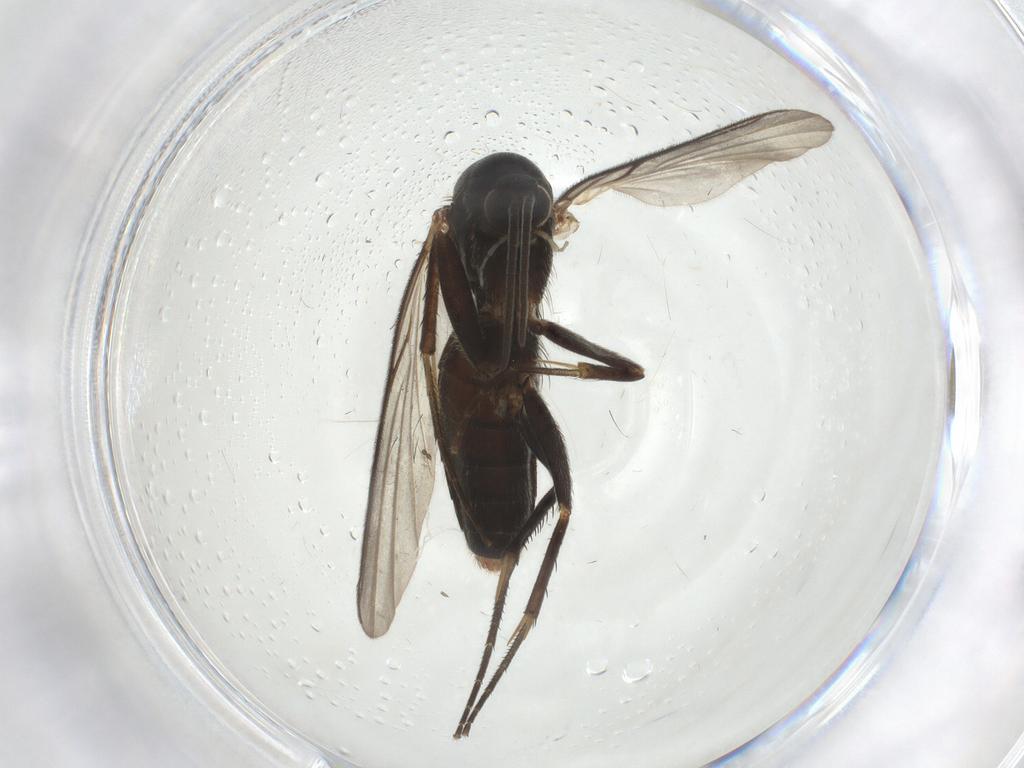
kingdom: Animalia
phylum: Arthropoda
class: Insecta
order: Diptera
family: Mycetophilidae
